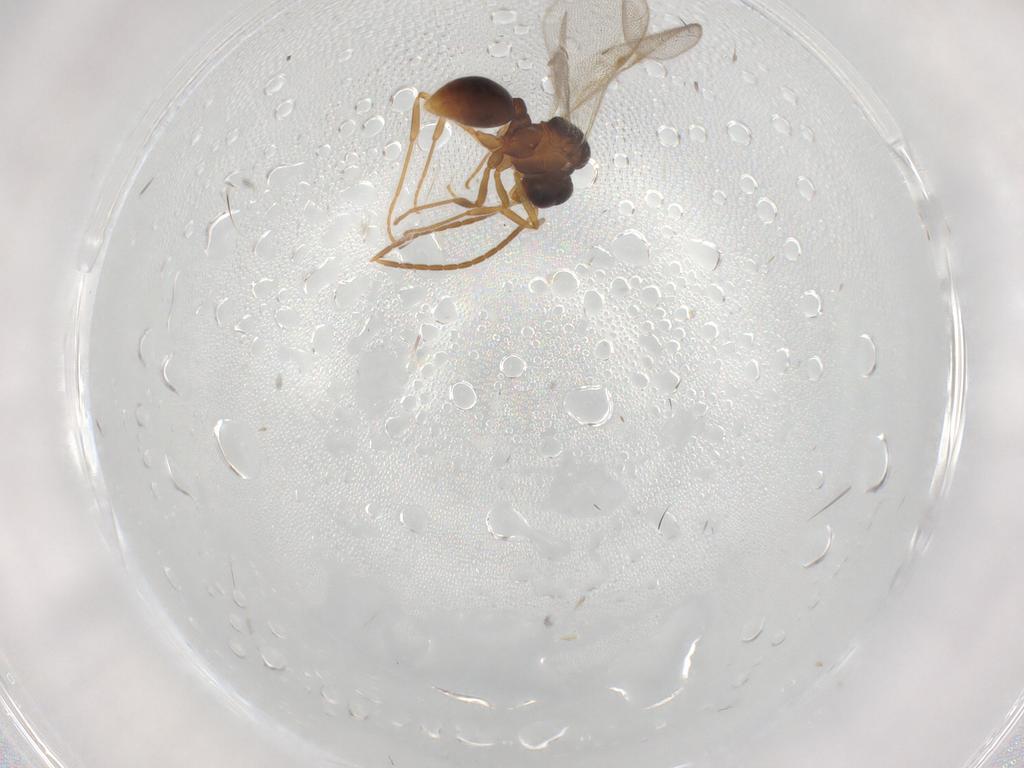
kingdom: Animalia
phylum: Arthropoda
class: Insecta
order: Hymenoptera
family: Formicidae
